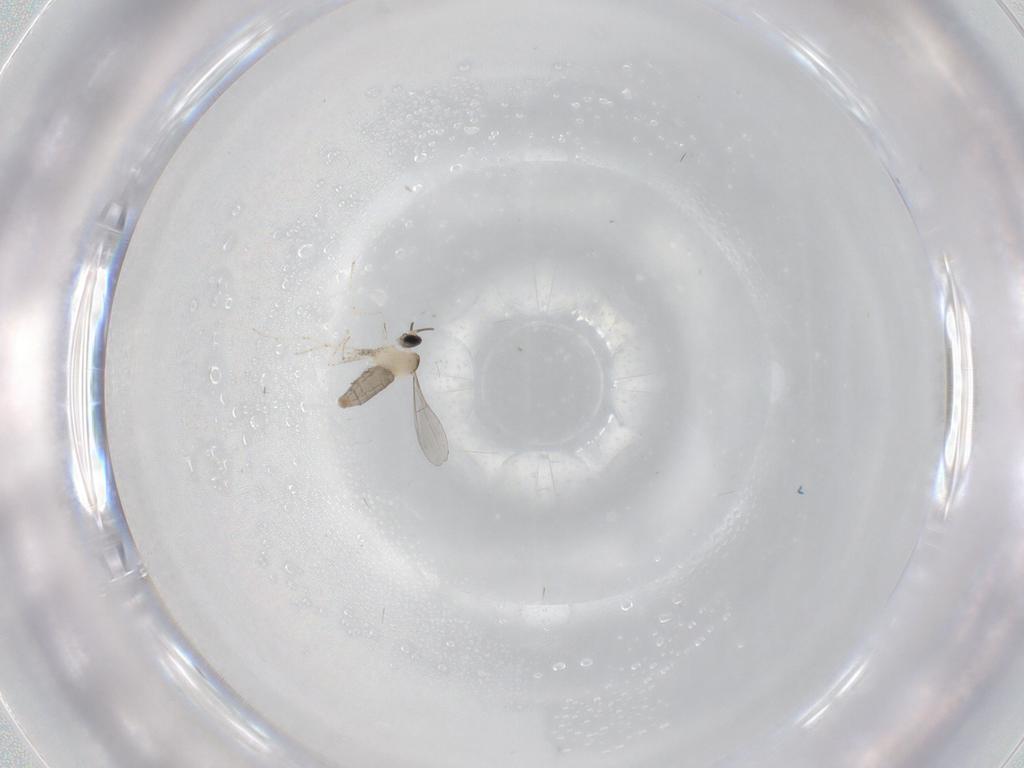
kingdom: Animalia
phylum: Arthropoda
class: Insecta
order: Diptera
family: Cecidomyiidae
